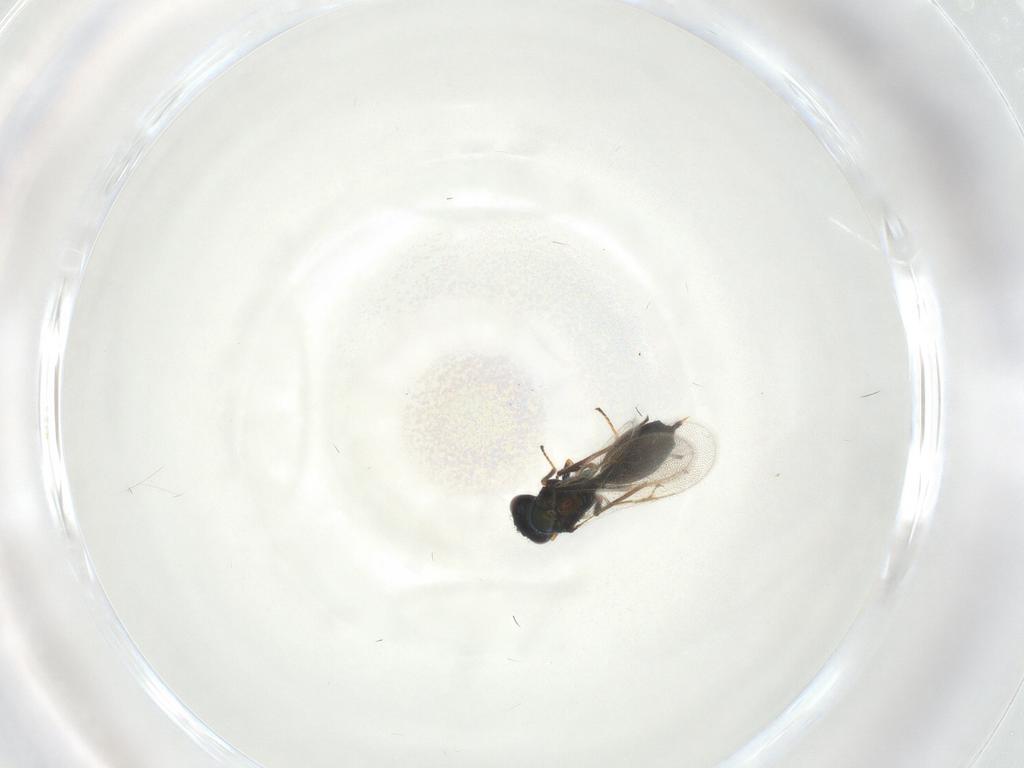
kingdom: Animalia
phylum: Arthropoda
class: Insecta
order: Hymenoptera
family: Chalcidoidea_incertae_sedis
